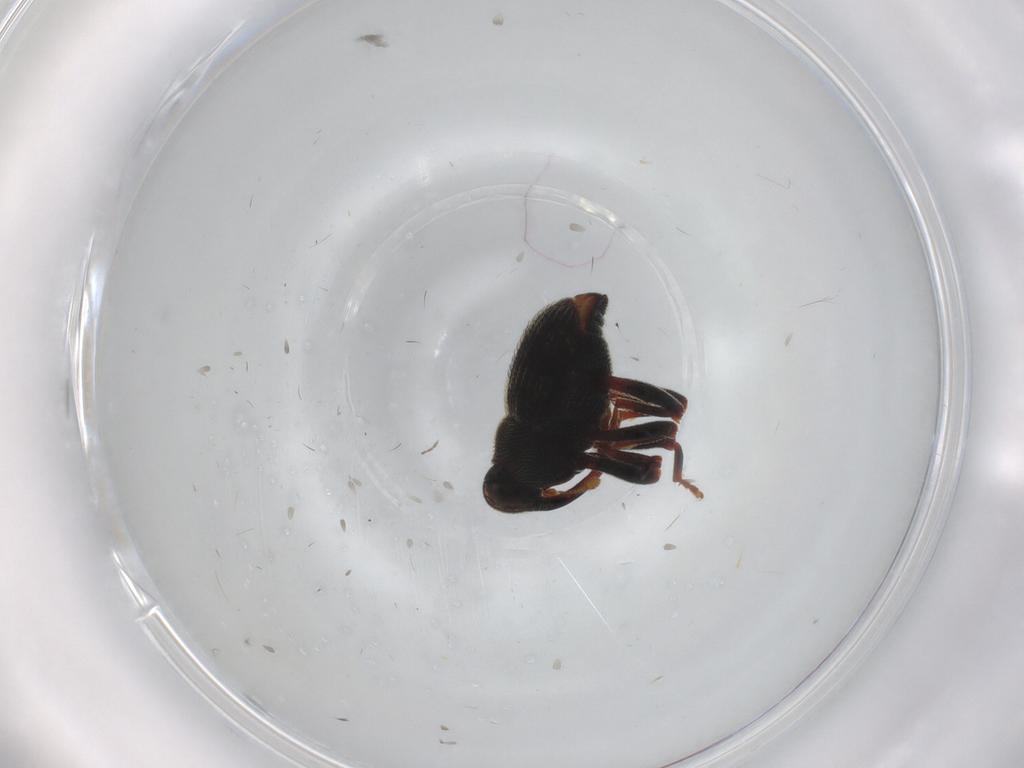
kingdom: Animalia
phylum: Arthropoda
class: Insecta
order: Coleoptera
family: Curculionidae
